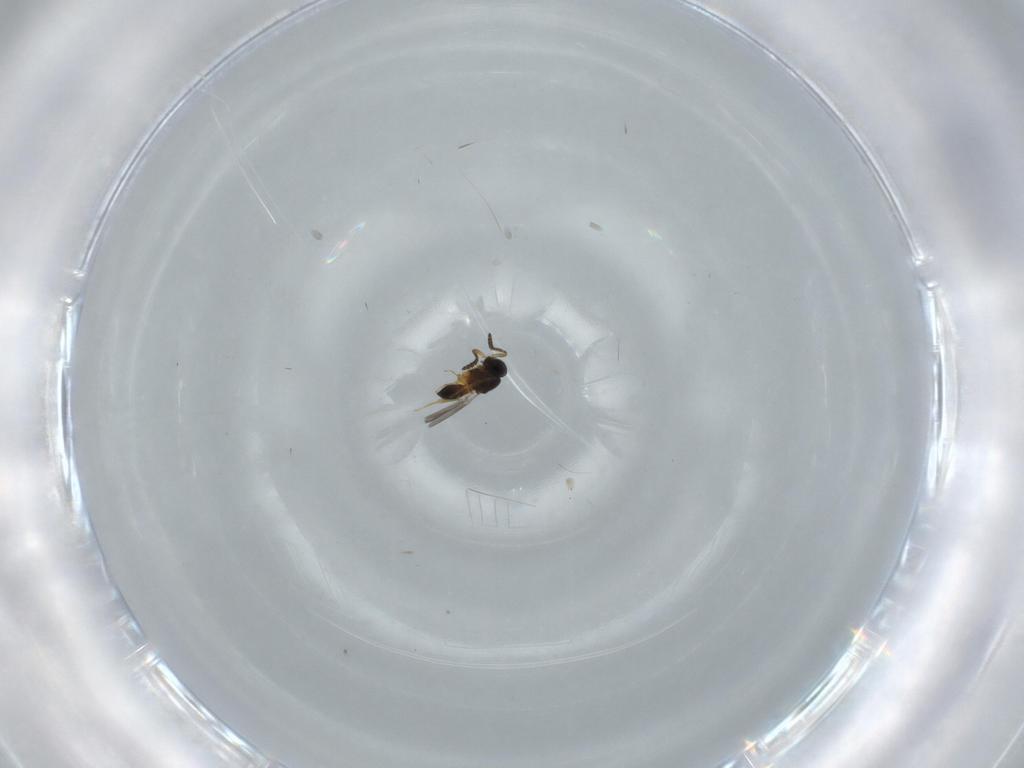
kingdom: Animalia
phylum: Arthropoda
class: Insecta
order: Hymenoptera
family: Scelionidae
